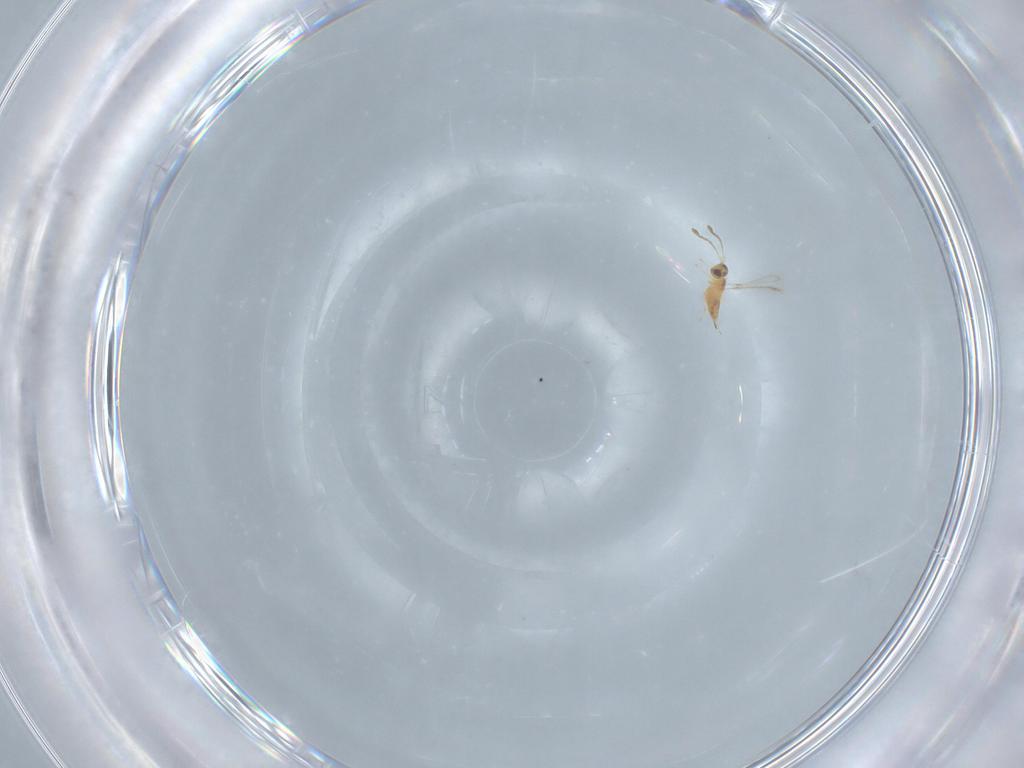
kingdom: Animalia
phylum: Arthropoda
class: Insecta
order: Hymenoptera
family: Mymaridae
